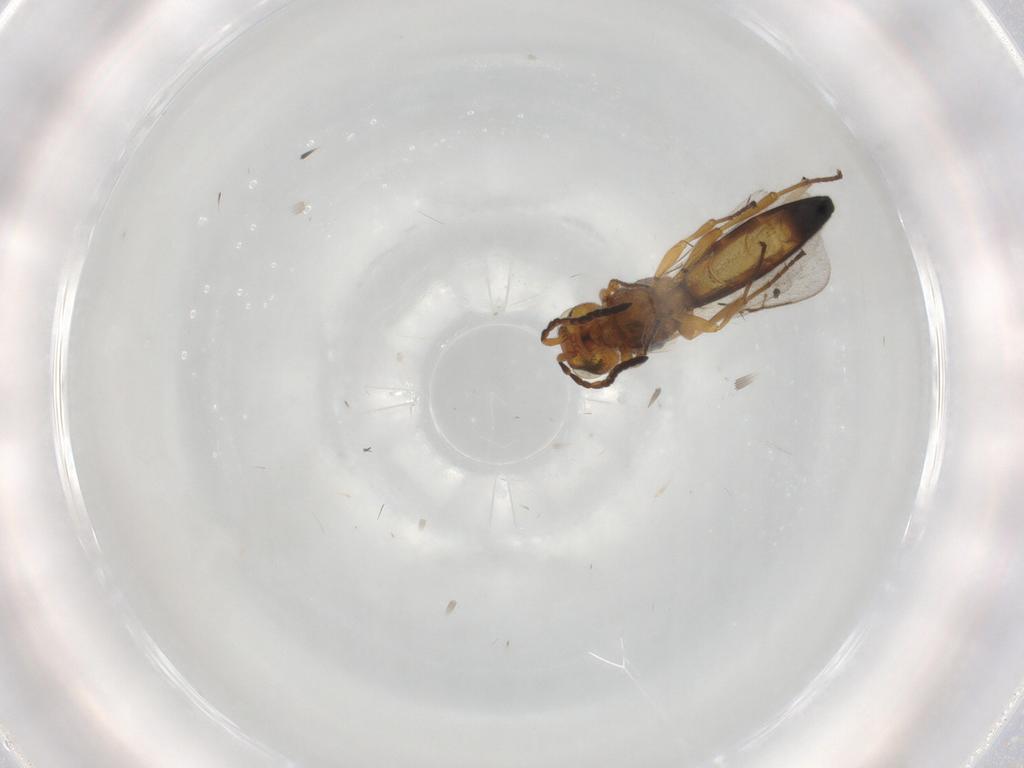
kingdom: Animalia
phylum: Arthropoda
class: Insecta
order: Hymenoptera
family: Scelionidae
